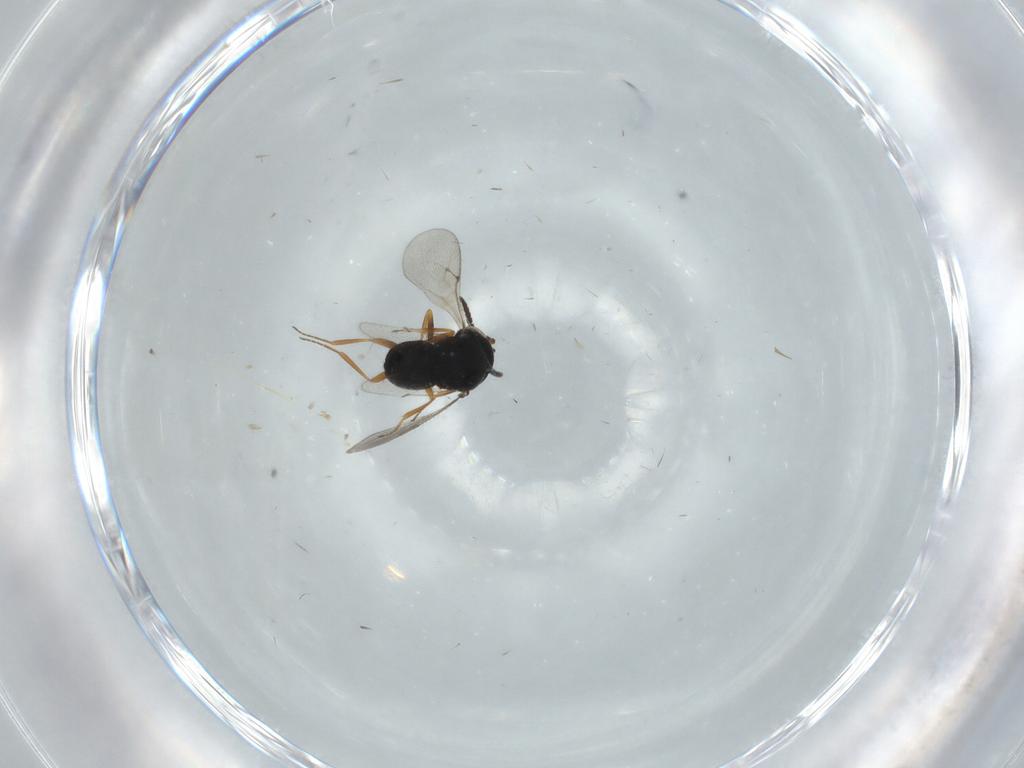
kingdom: Animalia
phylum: Arthropoda
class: Insecta
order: Hymenoptera
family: Scelionidae
